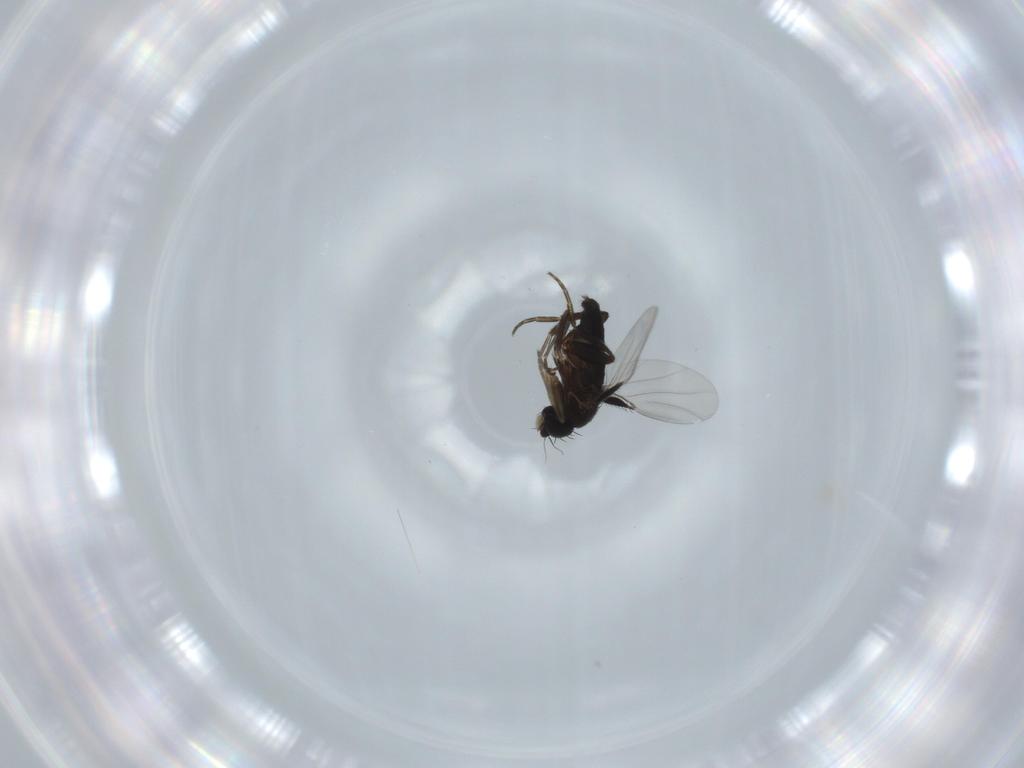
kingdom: Animalia
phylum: Arthropoda
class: Insecta
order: Diptera
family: Phoridae
